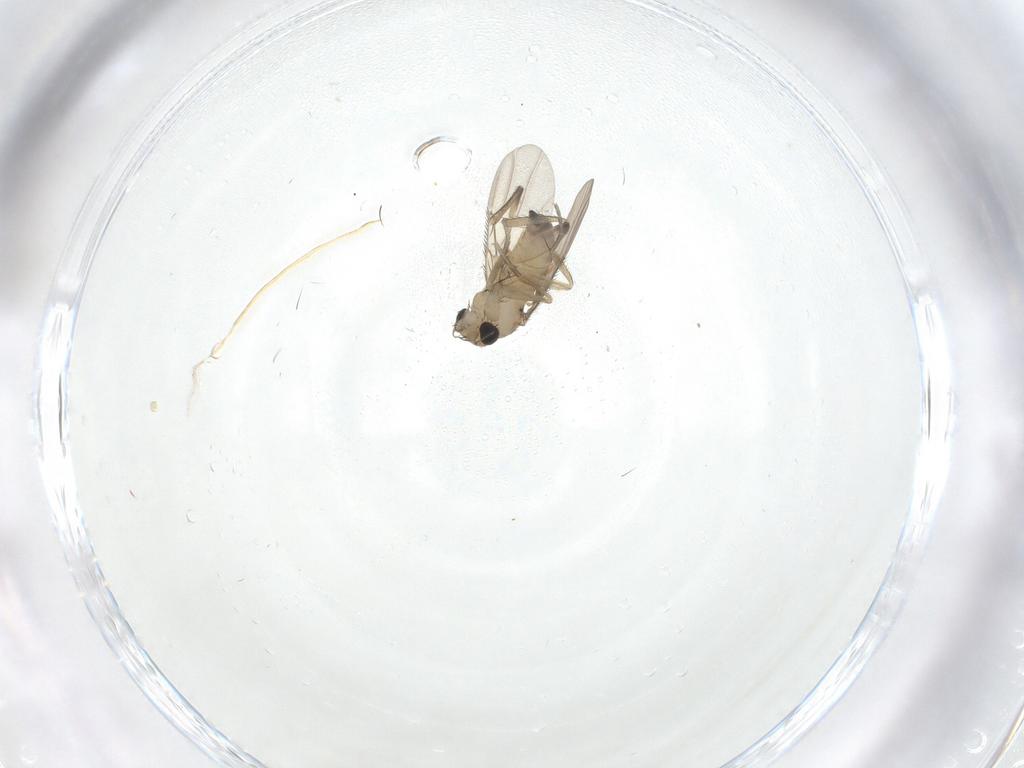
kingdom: Animalia
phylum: Arthropoda
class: Insecta
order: Diptera
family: Phoridae
